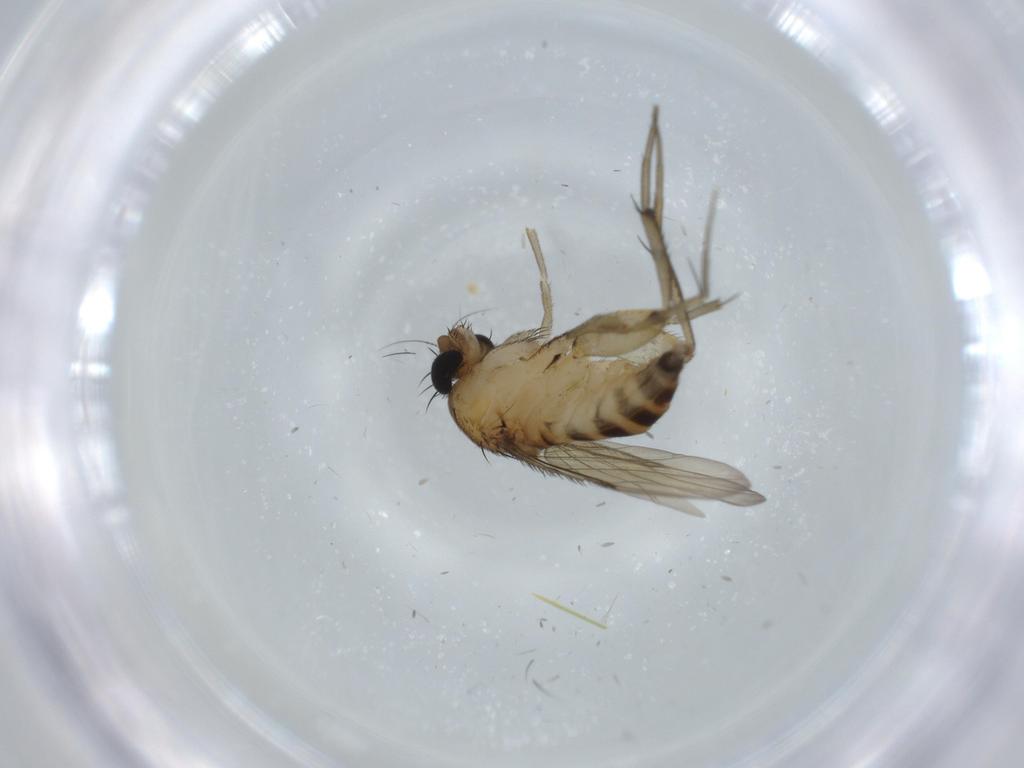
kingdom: Animalia
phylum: Arthropoda
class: Insecta
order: Diptera
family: Phoridae
